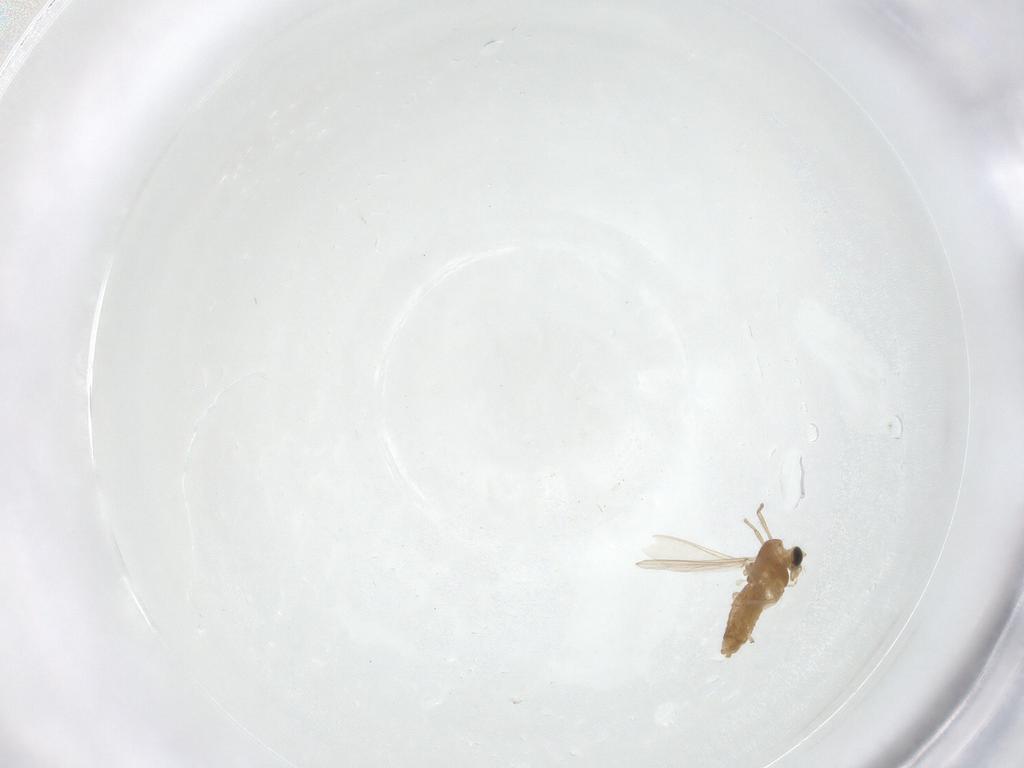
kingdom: Animalia
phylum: Arthropoda
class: Insecta
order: Diptera
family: Chironomidae
